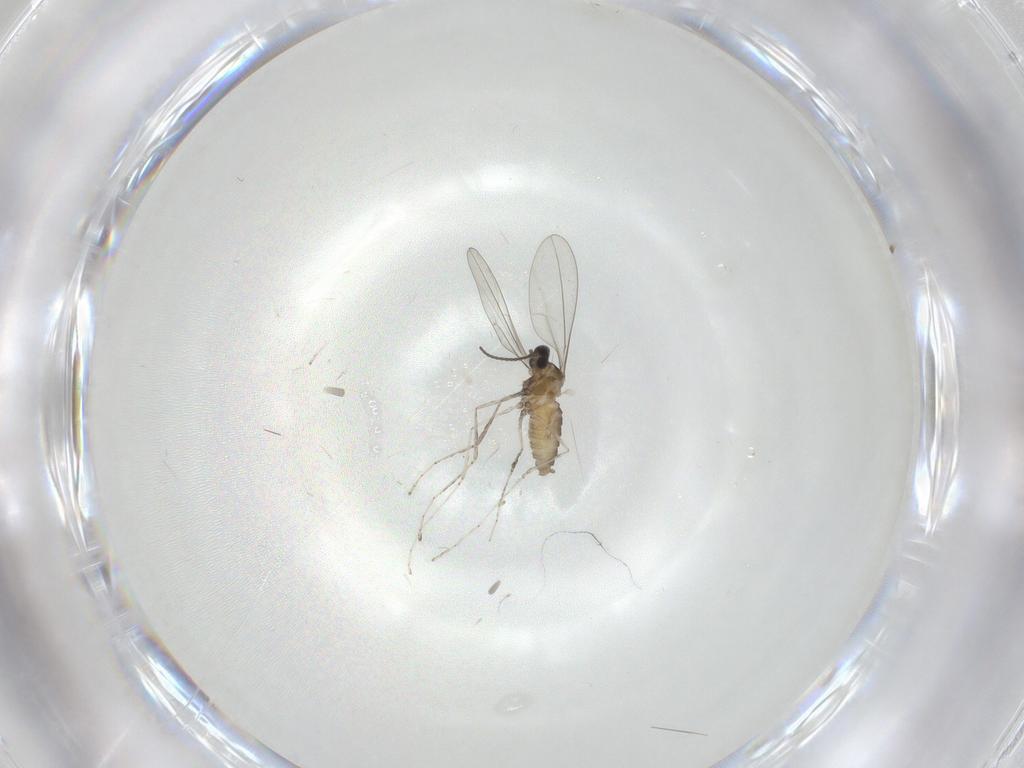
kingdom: Animalia
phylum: Arthropoda
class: Insecta
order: Diptera
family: Cecidomyiidae
